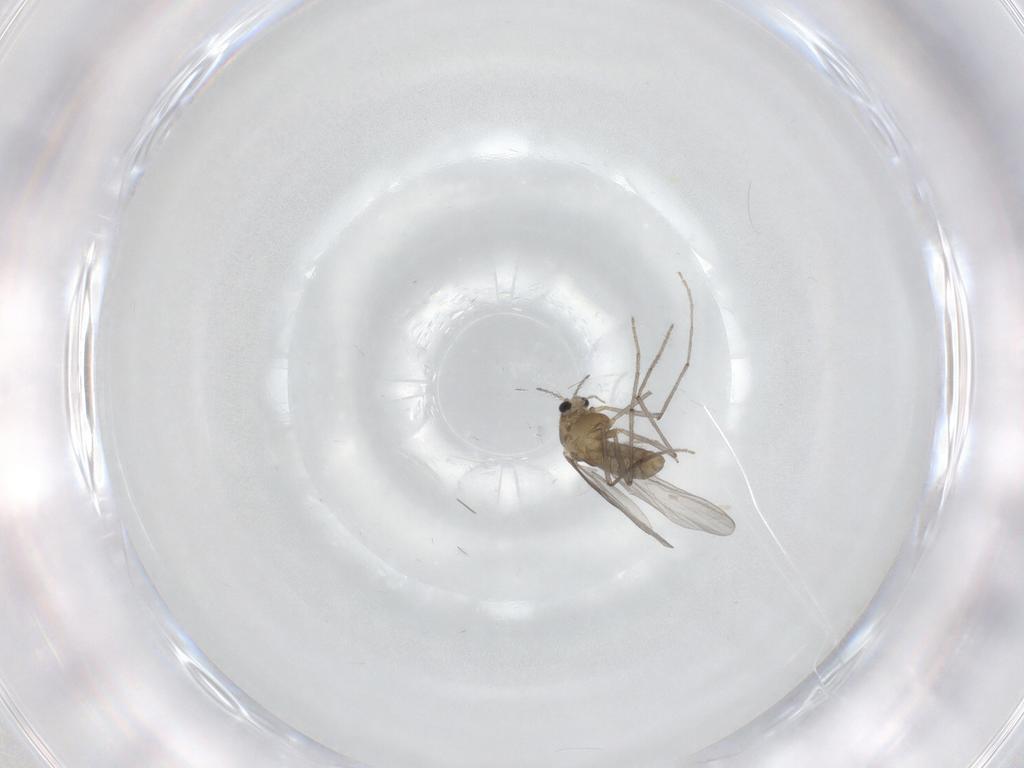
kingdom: Animalia
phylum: Arthropoda
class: Insecta
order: Diptera
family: Chironomidae
